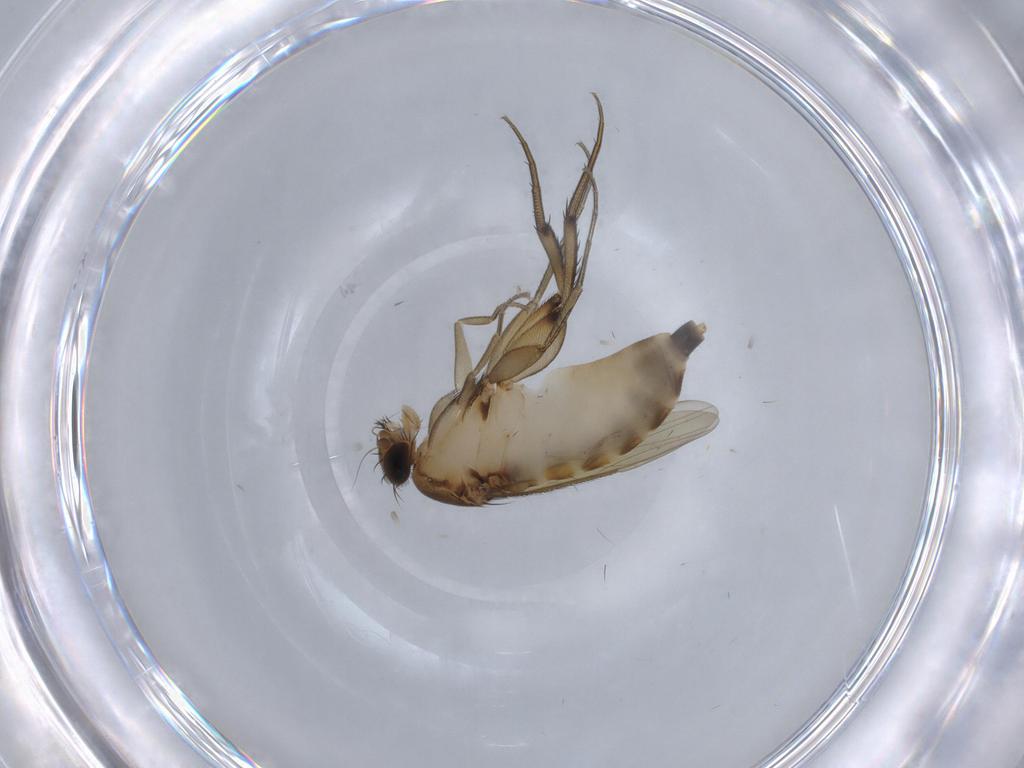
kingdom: Animalia
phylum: Arthropoda
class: Insecta
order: Diptera
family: Phoridae
